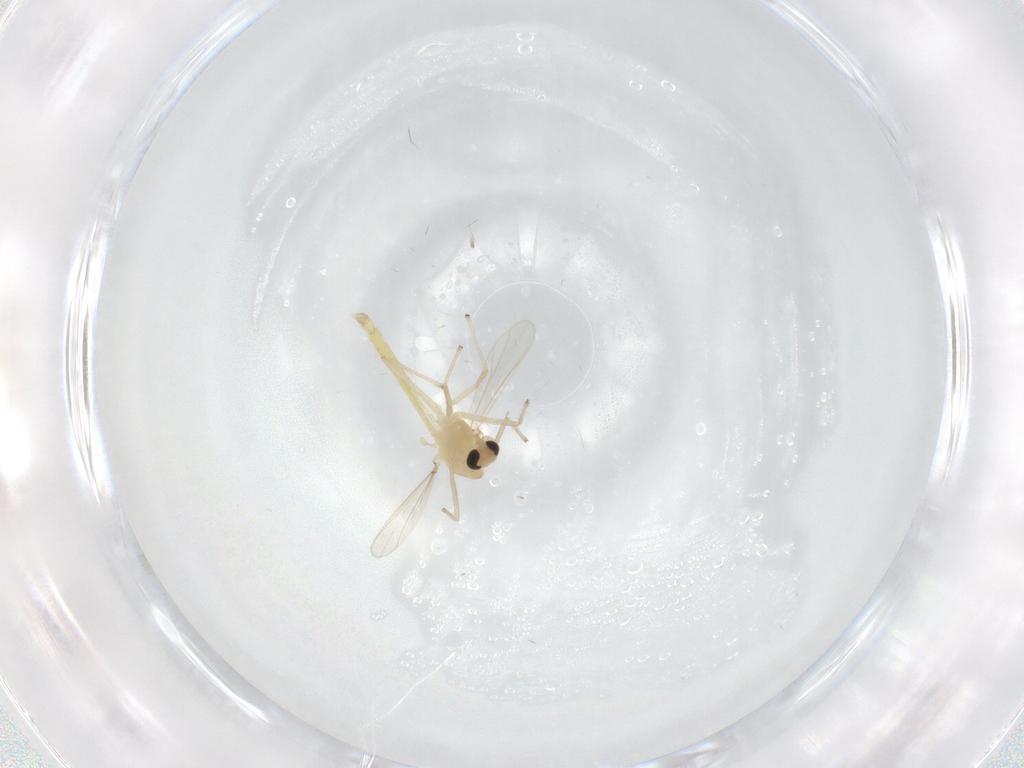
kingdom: Animalia
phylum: Arthropoda
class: Insecta
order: Diptera
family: Chironomidae
